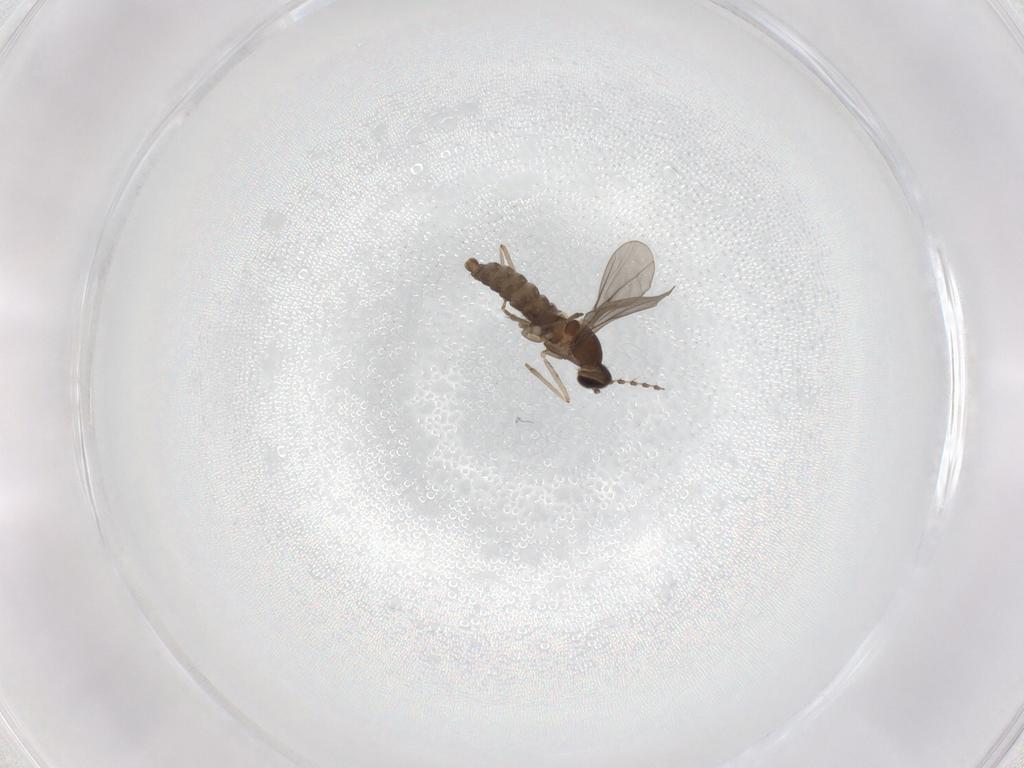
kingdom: Animalia
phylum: Arthropoda
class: Insecta
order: Diptera
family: Cecidomyiidae
